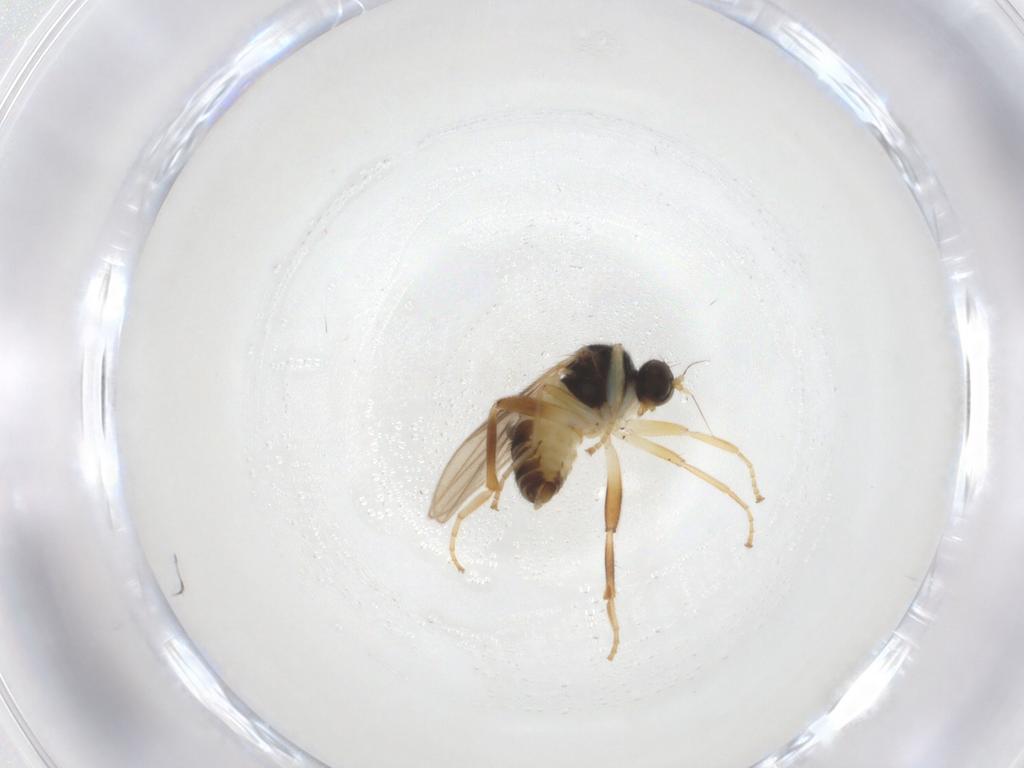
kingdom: Animalia
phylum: Arthropoda
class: Insecta
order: Diptera
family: Hybotidae
